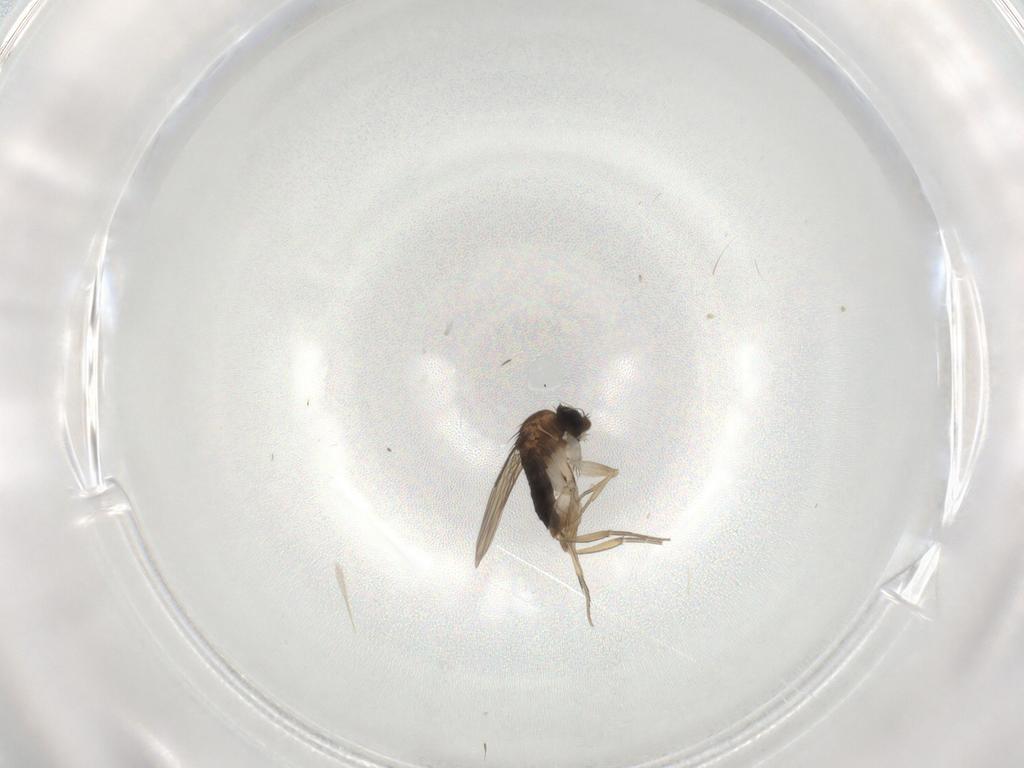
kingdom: Animalia
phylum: Arthropoda
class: Insecta
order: Diptera
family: Phoridae
